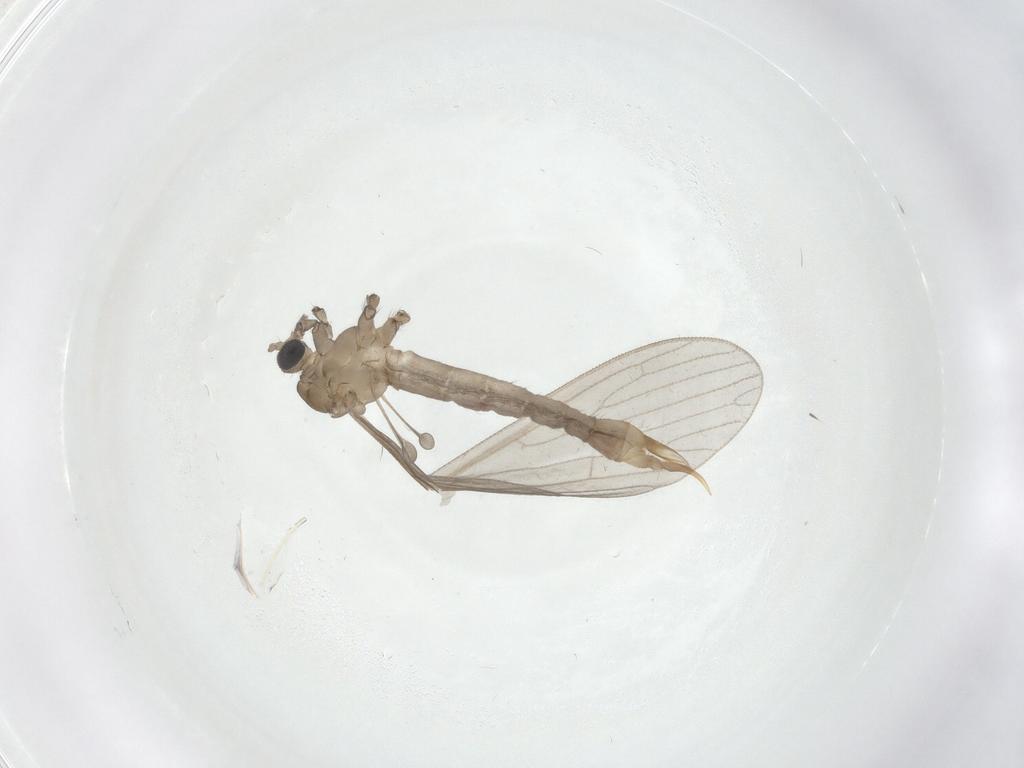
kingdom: Animalia
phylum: Arthropoda
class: Insecta
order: Diptera
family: Limoniidae
